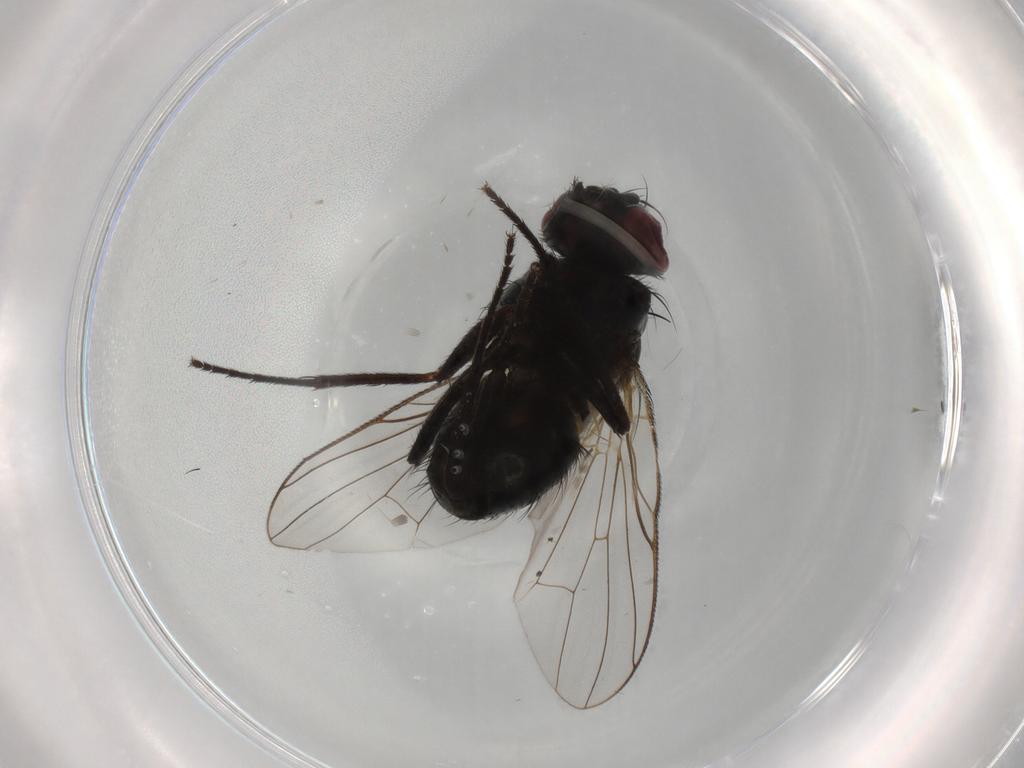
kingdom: Animalia
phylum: Arthropoda
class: Insecta
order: Diptera
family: Muscidae
